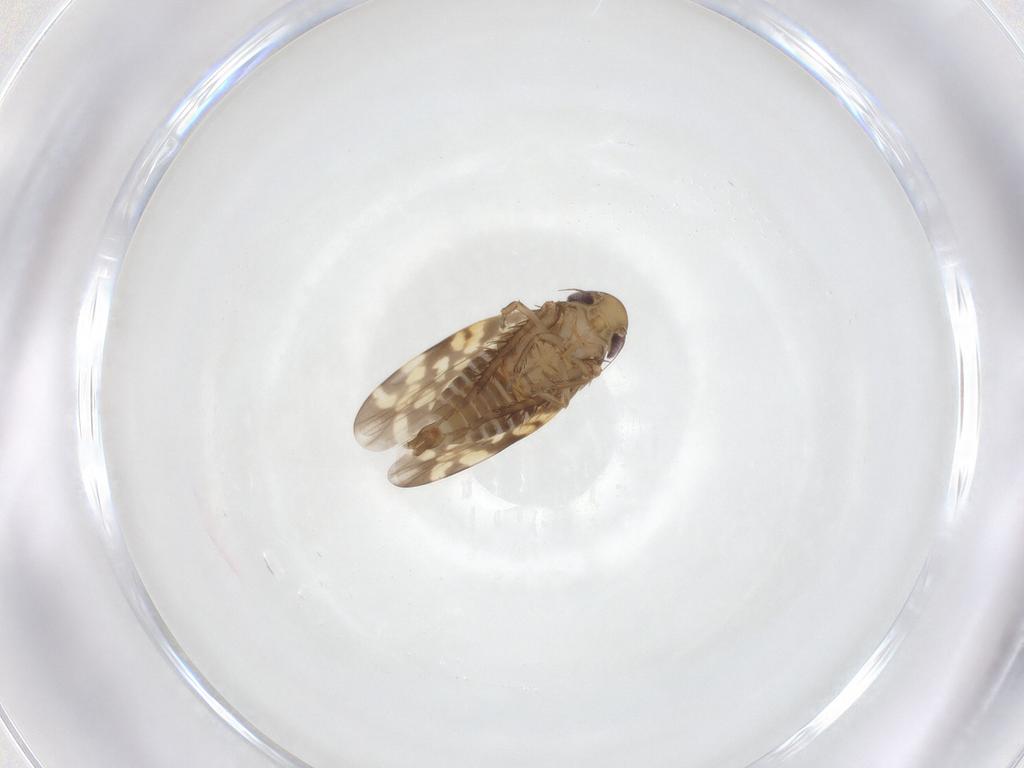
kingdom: Animalia
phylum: Arthropoda
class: Insecta
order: Hemiptera
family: Cicadellidae
